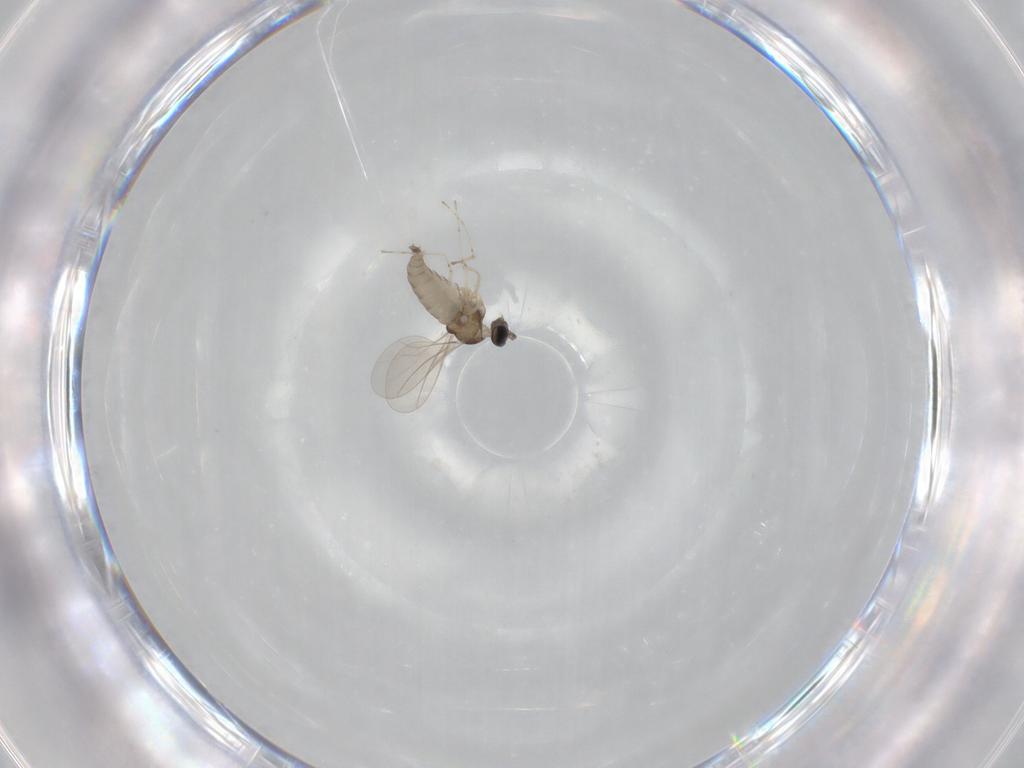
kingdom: Animalia
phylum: Arthropoda
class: Insecta
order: Diptera
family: Cecidomyiidae
